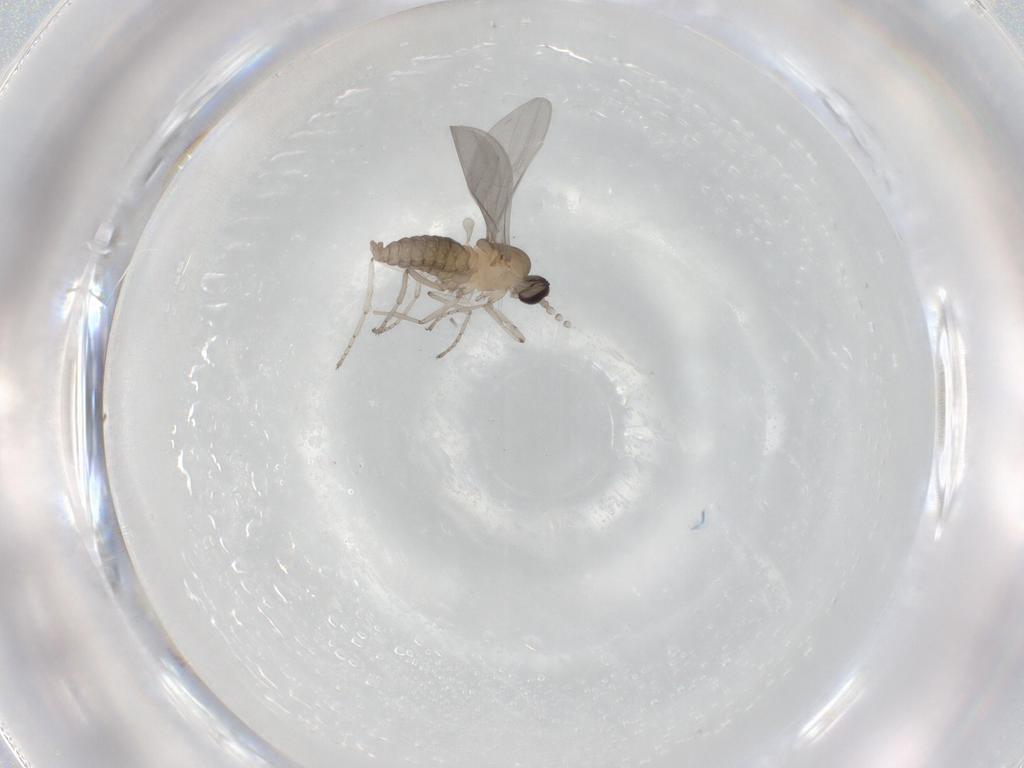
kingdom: Animalia
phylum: Arthropoda
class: Insecta
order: Diptera
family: Cecidomyiidae
